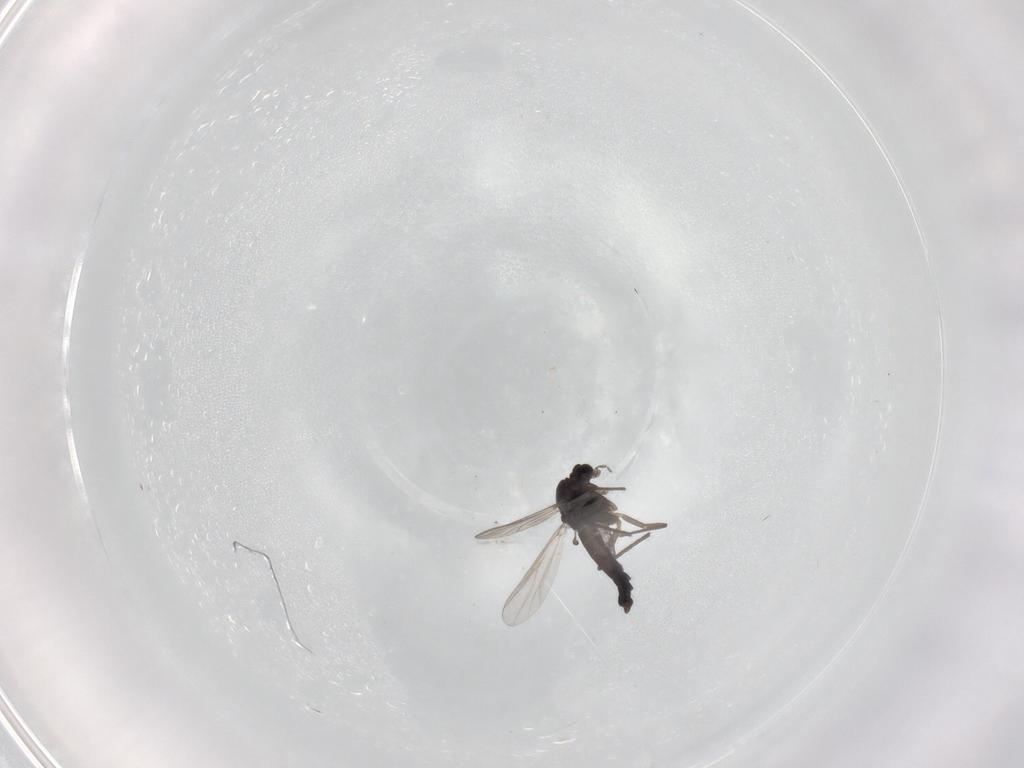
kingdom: Animalia
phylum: Arthropoda
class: Insecta
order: Diptera
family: Chironomidae
